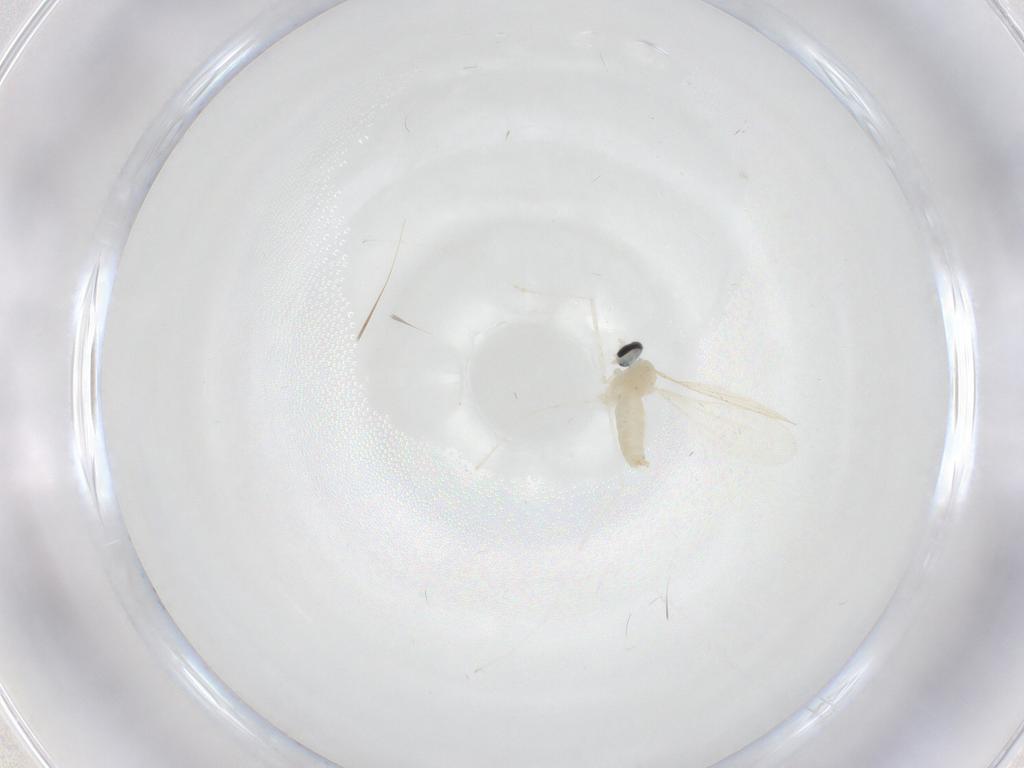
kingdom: Animalia
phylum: Arthropoda
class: Insecta
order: Diptera
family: Cecidomyiidae
